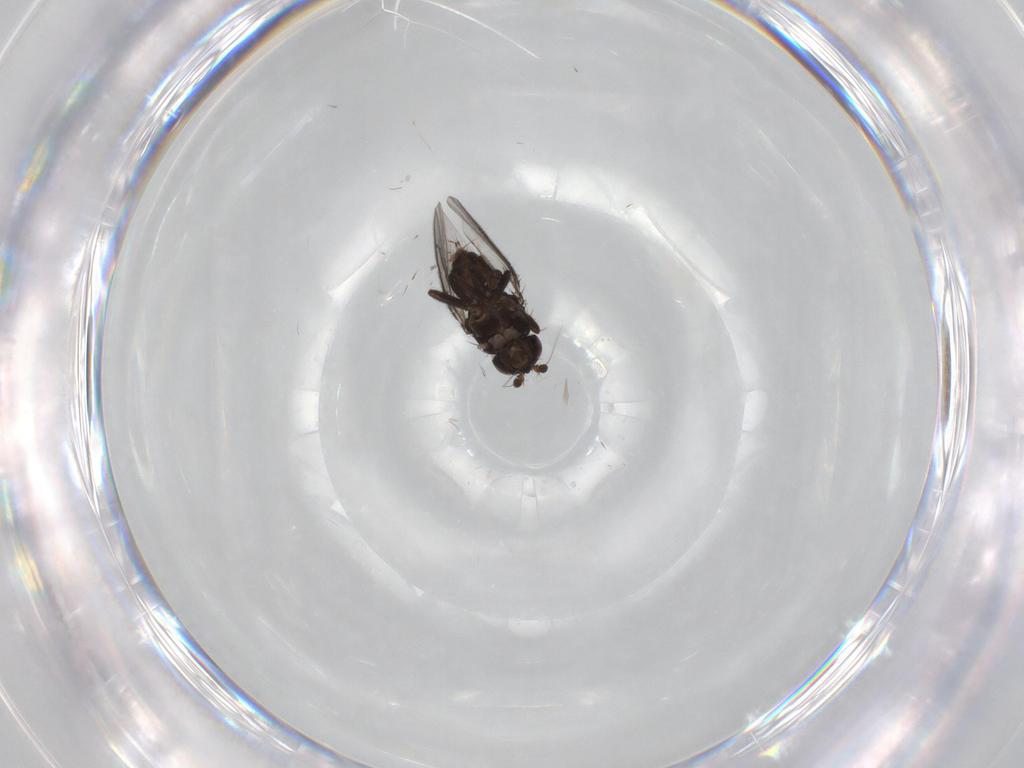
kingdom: Animalia
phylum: Arthropoda
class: Insecta
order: Diptera
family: Sphaeroceridae
